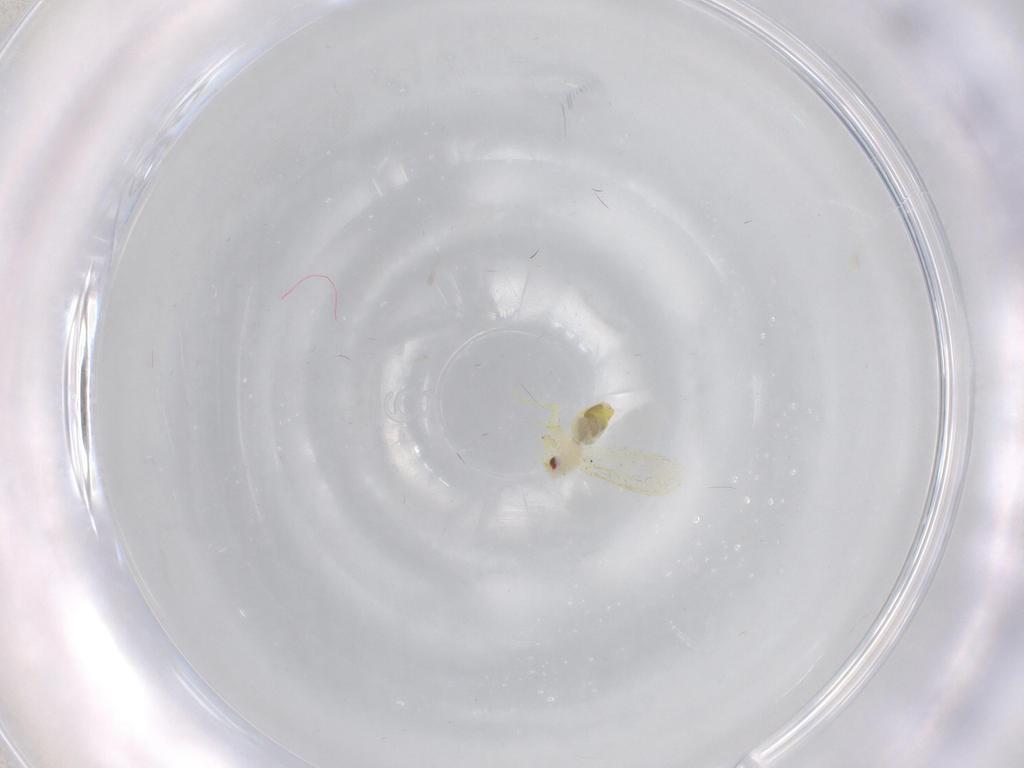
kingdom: Animalia
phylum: Arthropoda
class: Insecta
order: Hemiptera
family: Aleyrodidae
